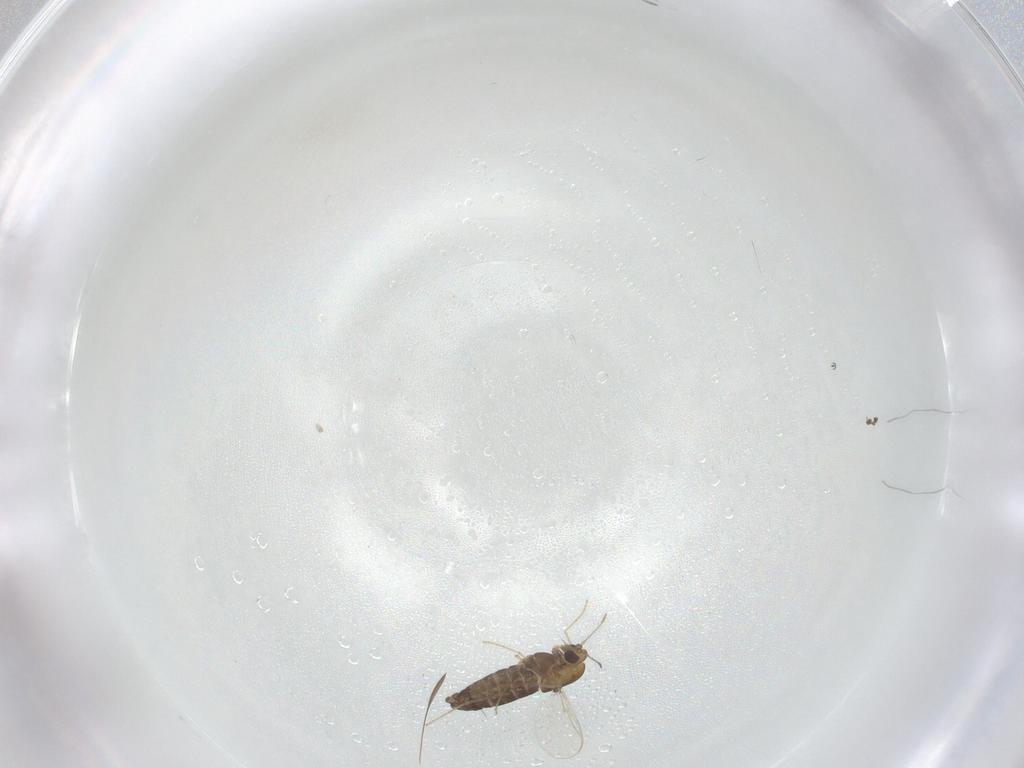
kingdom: Animalia
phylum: Arthropoda
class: Insecta
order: Diptera
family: Chironomidae
